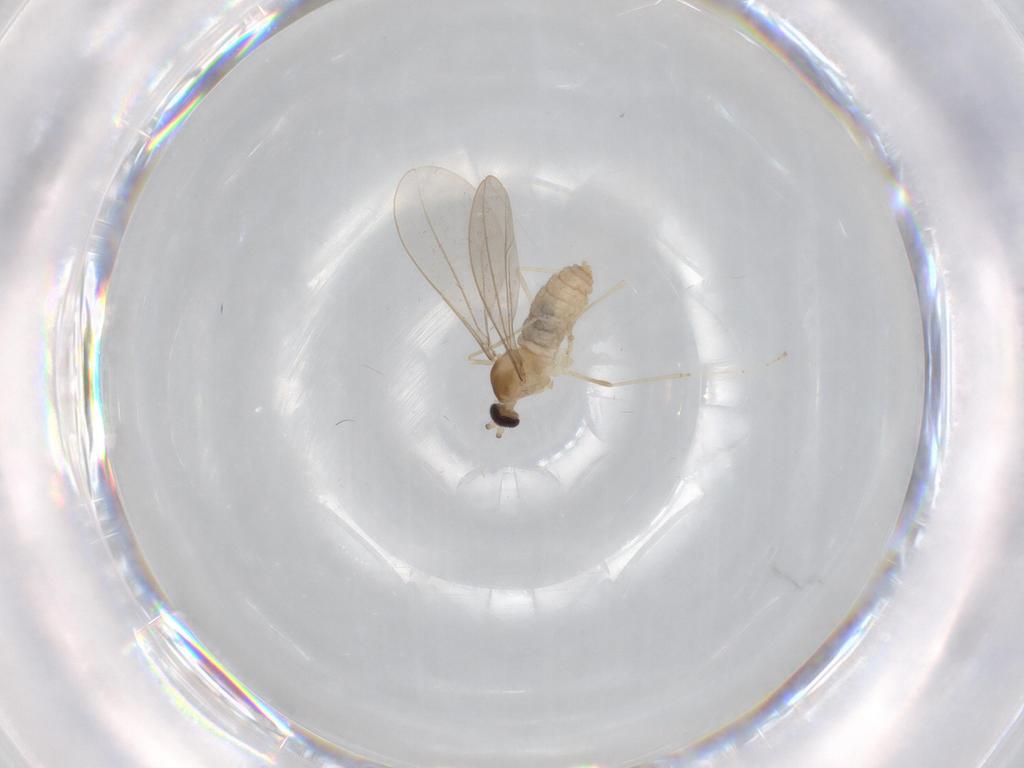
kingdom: Animalia
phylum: Arthropoda
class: Insecta
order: Diptera
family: Cecidomyiidae
